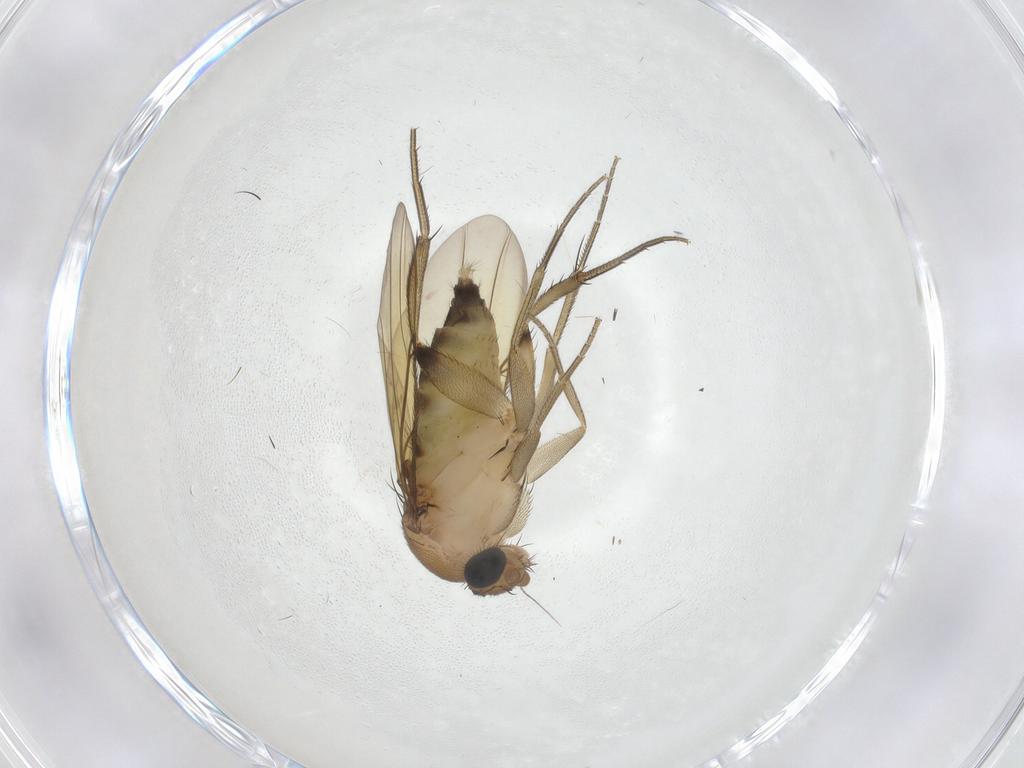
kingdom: Animalia
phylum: Arthropoda
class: Insecta
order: Diptera
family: Phoridae
